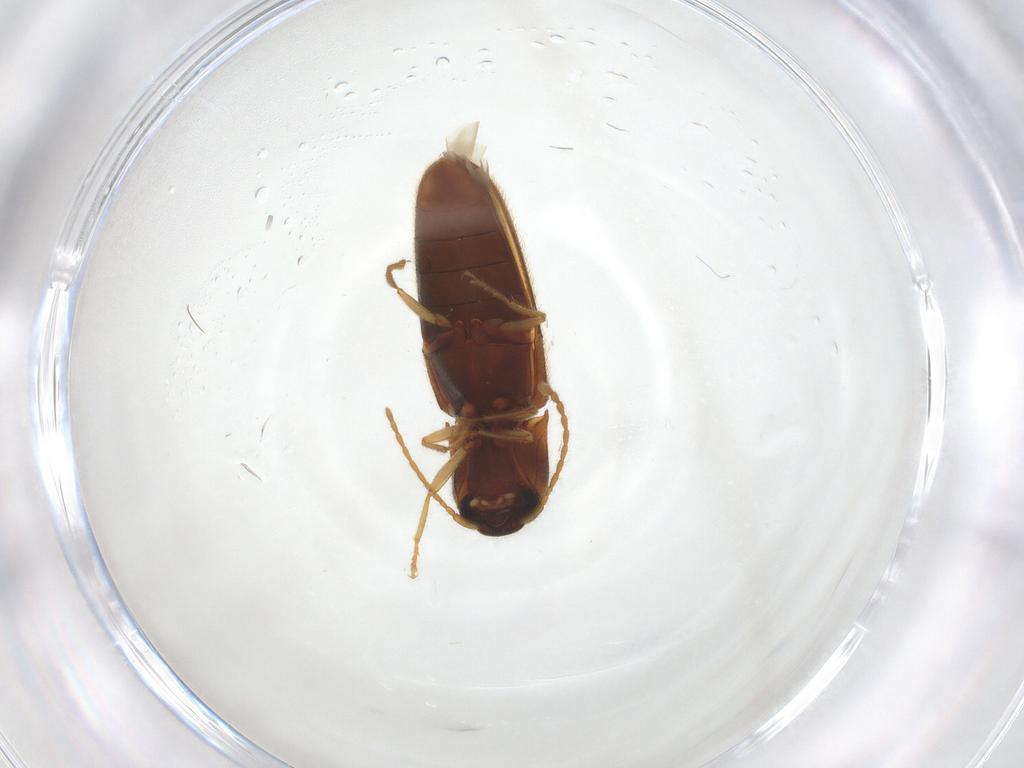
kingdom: Animalia
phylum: Arthropoda
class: Insecta
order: Coleoptera
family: Elateridae
